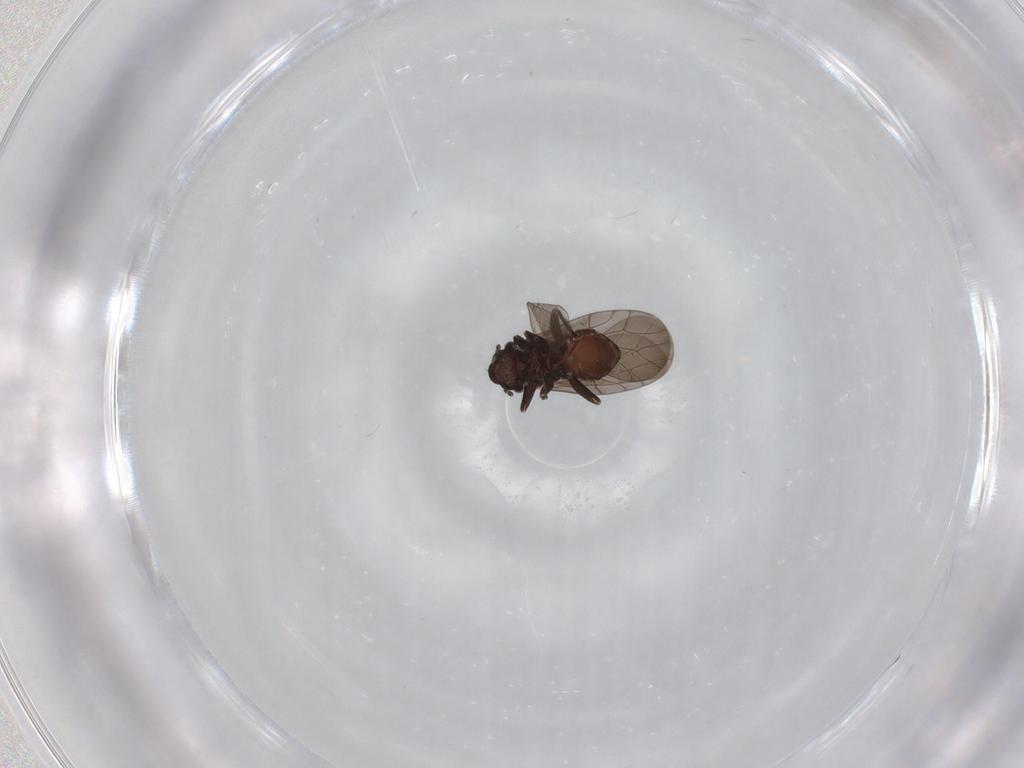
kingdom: Animalia
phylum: Arthropoda
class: Insecta
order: Psocodea
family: Lepidopsocidae
